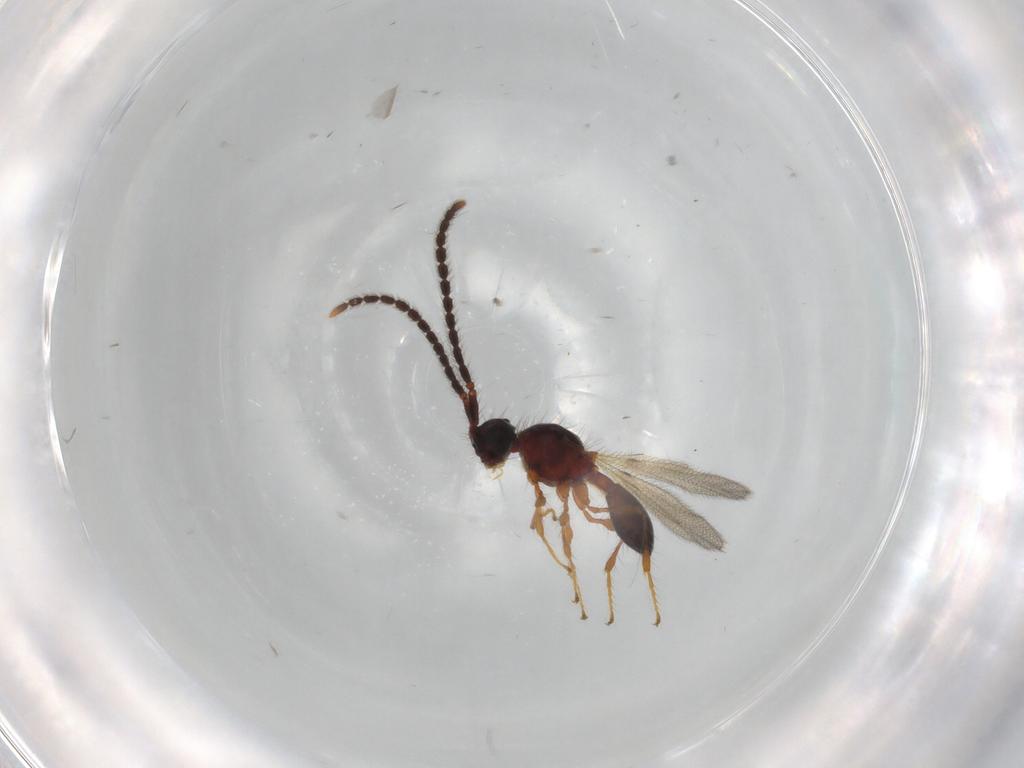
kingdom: Animalia
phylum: Arthropoda
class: Insecta
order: Hymenoptera
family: Diapriidae
